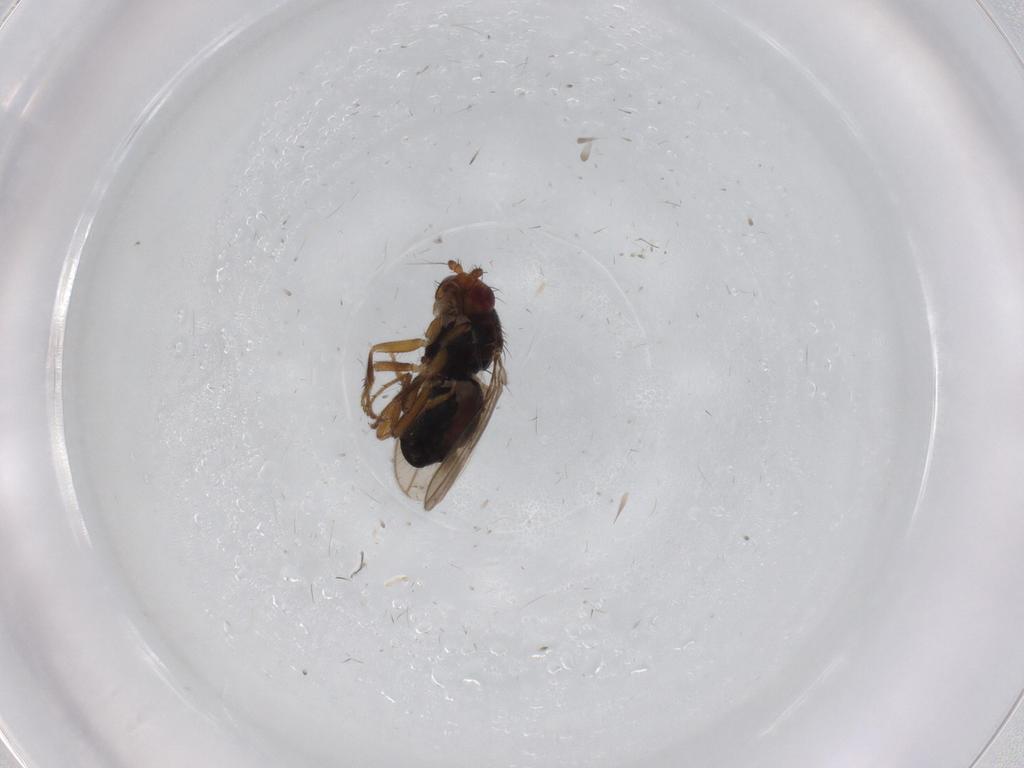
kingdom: Animalia
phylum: Arthropoda
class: Insecta
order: Diptera
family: Sphaeroceridae
